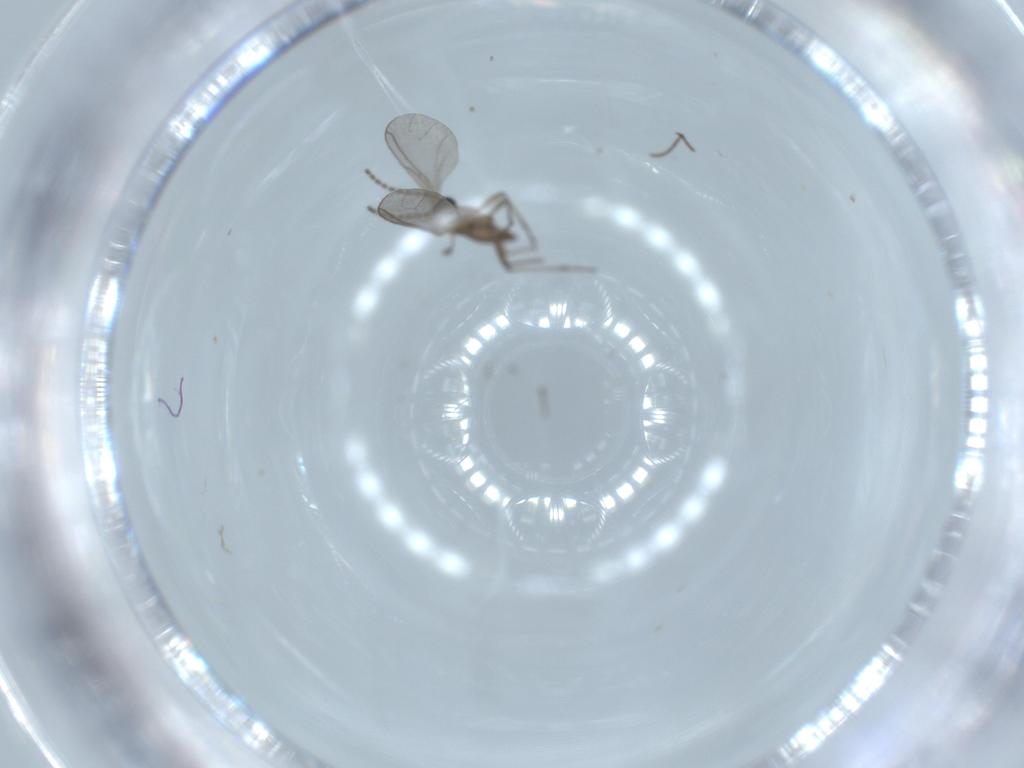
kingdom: Animalia
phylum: Arthropoda
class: Insecta
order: Diptera
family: Sciaridae
